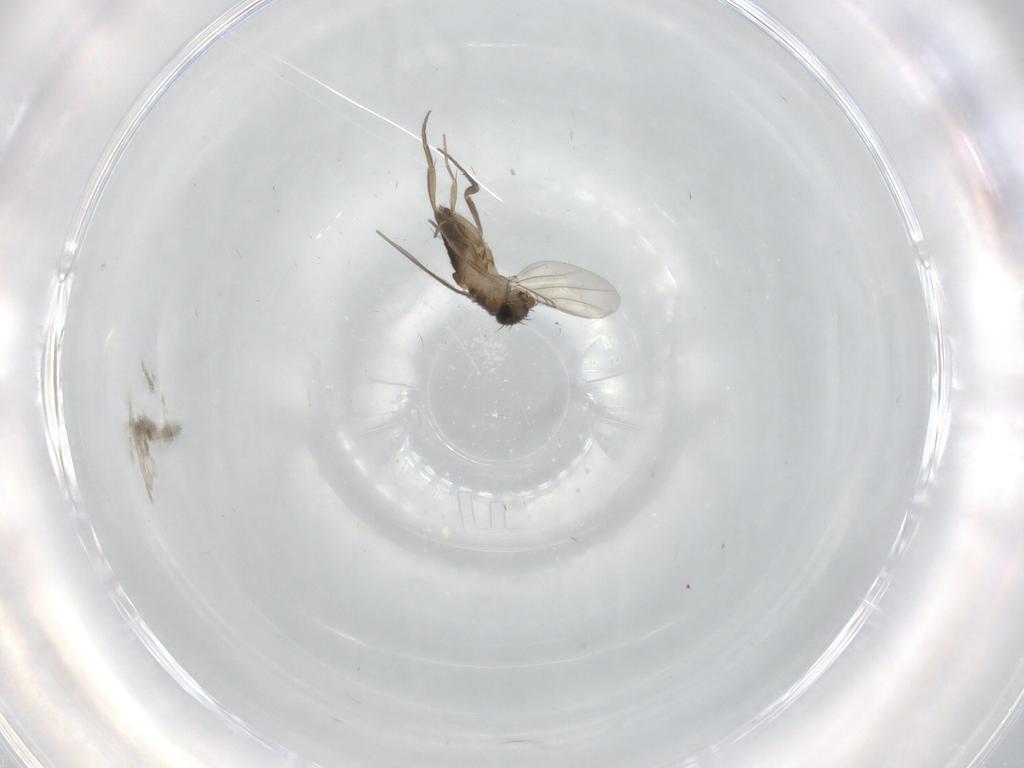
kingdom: Animalia
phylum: Arthropoda
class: Insecta
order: Diptera
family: Phoridae
